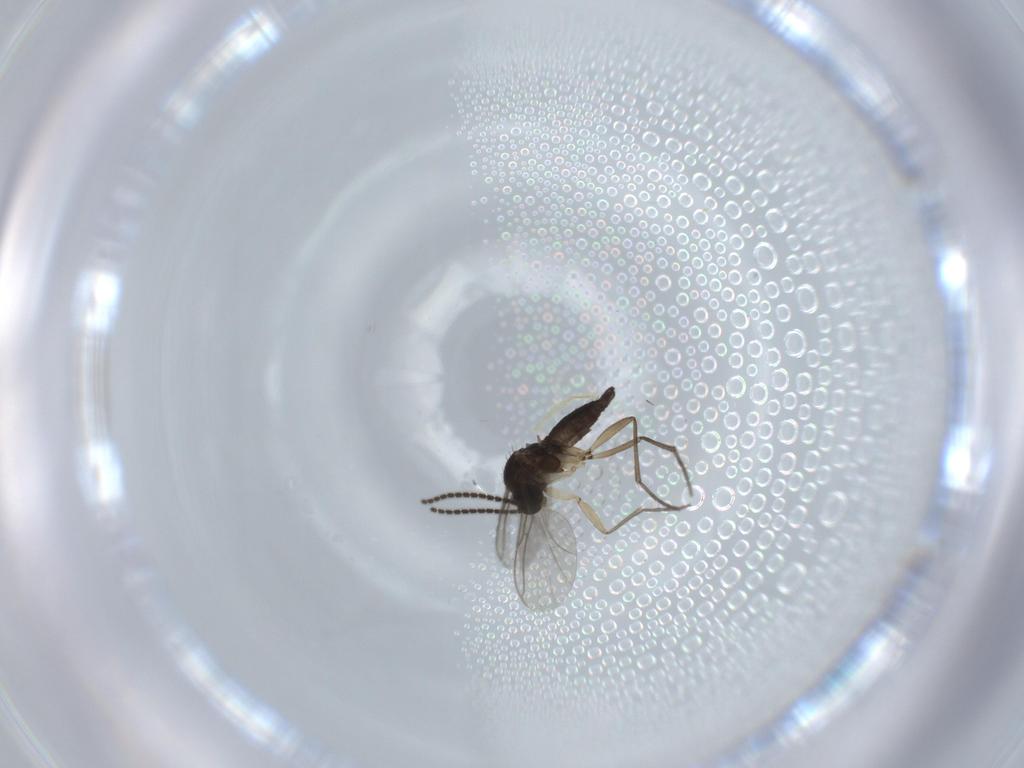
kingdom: Animalia
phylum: Arthropoda
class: Insecta
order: Diptera
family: Sciaridae
